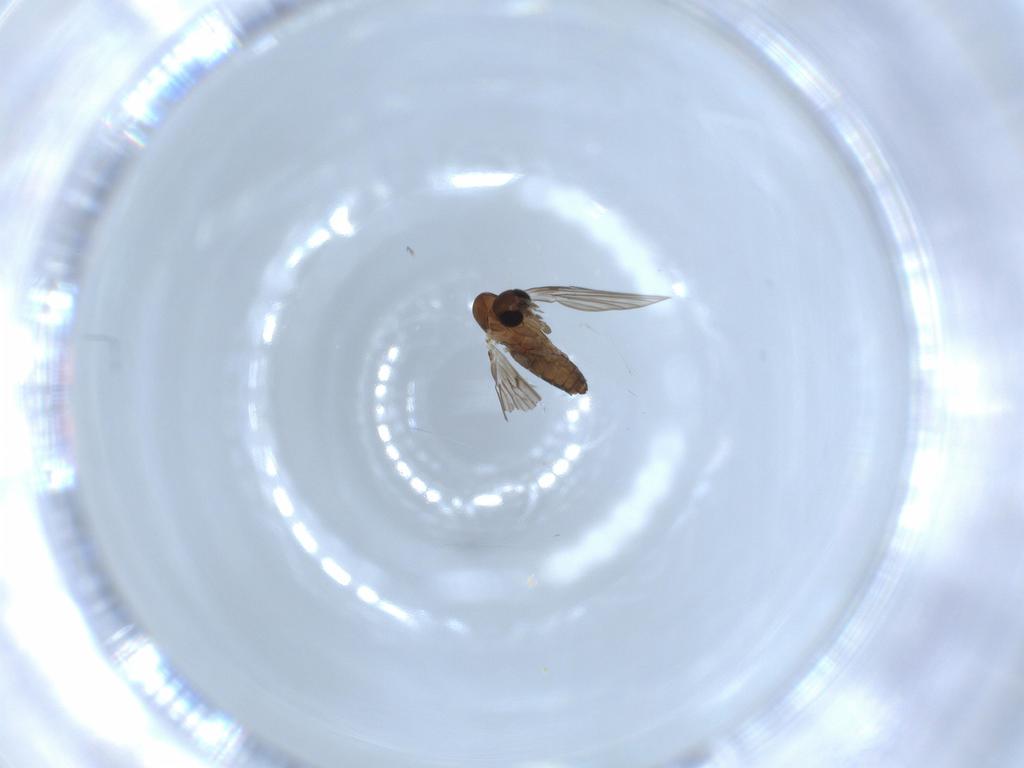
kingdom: Animalia
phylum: Arthropoda
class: Insecta
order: Diptera
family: Psychodidae
